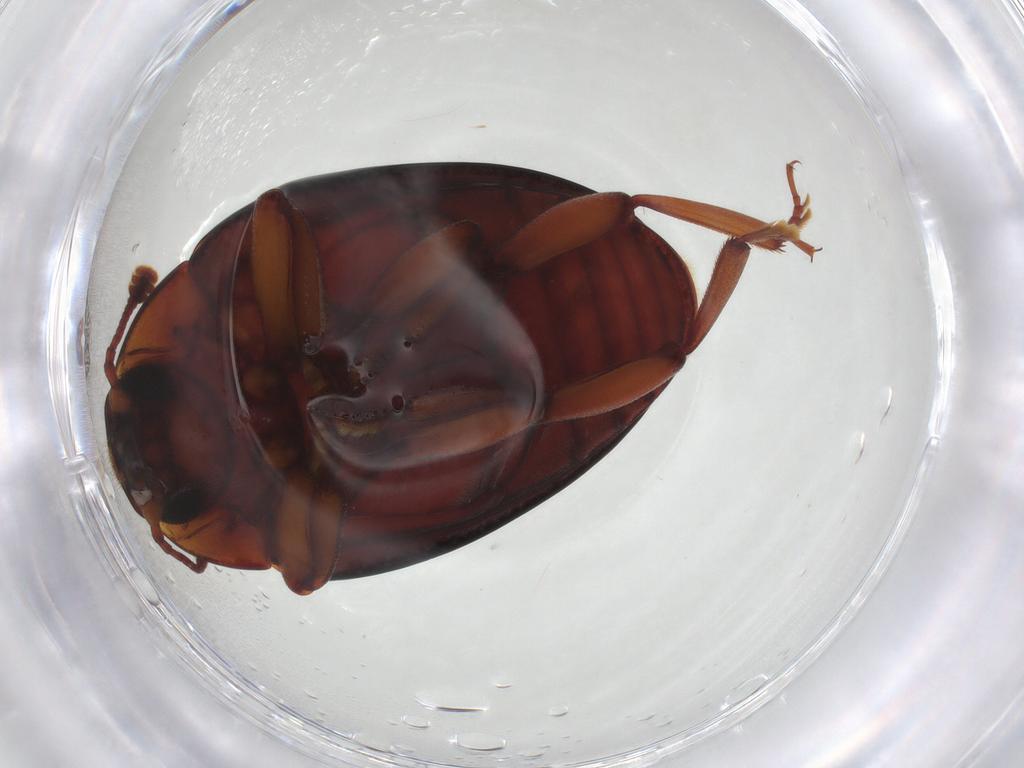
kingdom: Animalia
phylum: Arthropoda
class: Insecta
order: Coleoptera
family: Zopheridae
